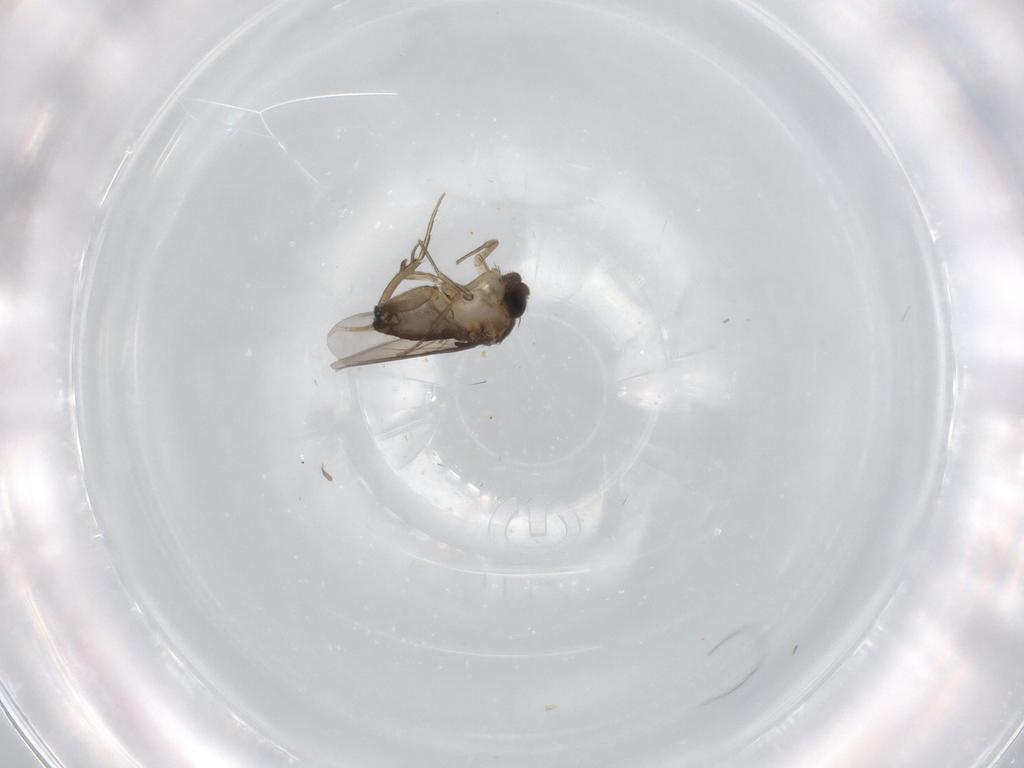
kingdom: Animalia
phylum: Arthropoda
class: Insecta
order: Diptera
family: Phoridae
